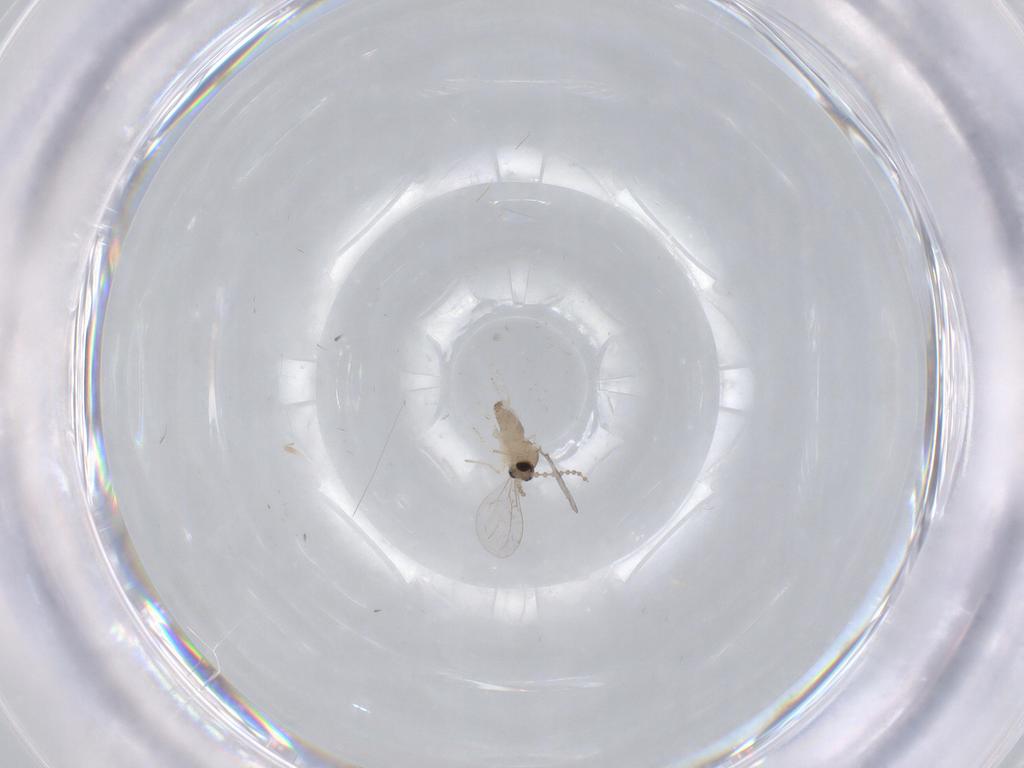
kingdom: Animalia
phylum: Arthropoda
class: Insecta
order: Diptera
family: Cecidomyiidae
